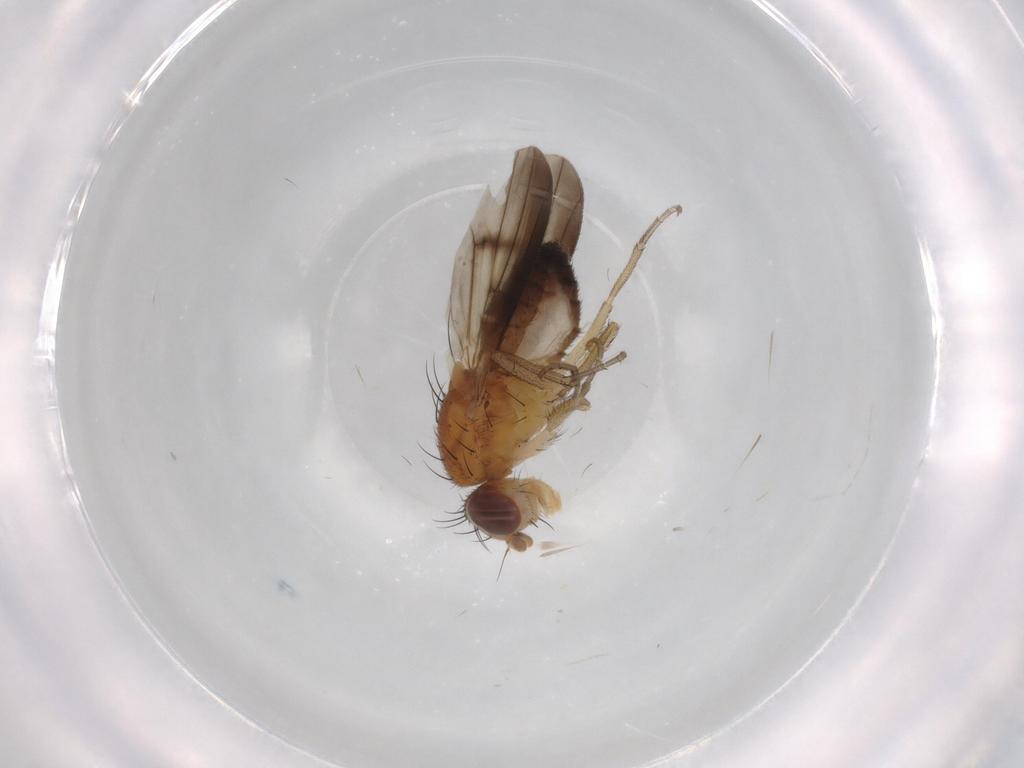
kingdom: Animalia
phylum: Arthropoda
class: Insecta
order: Diptera
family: Heleomyzidae
